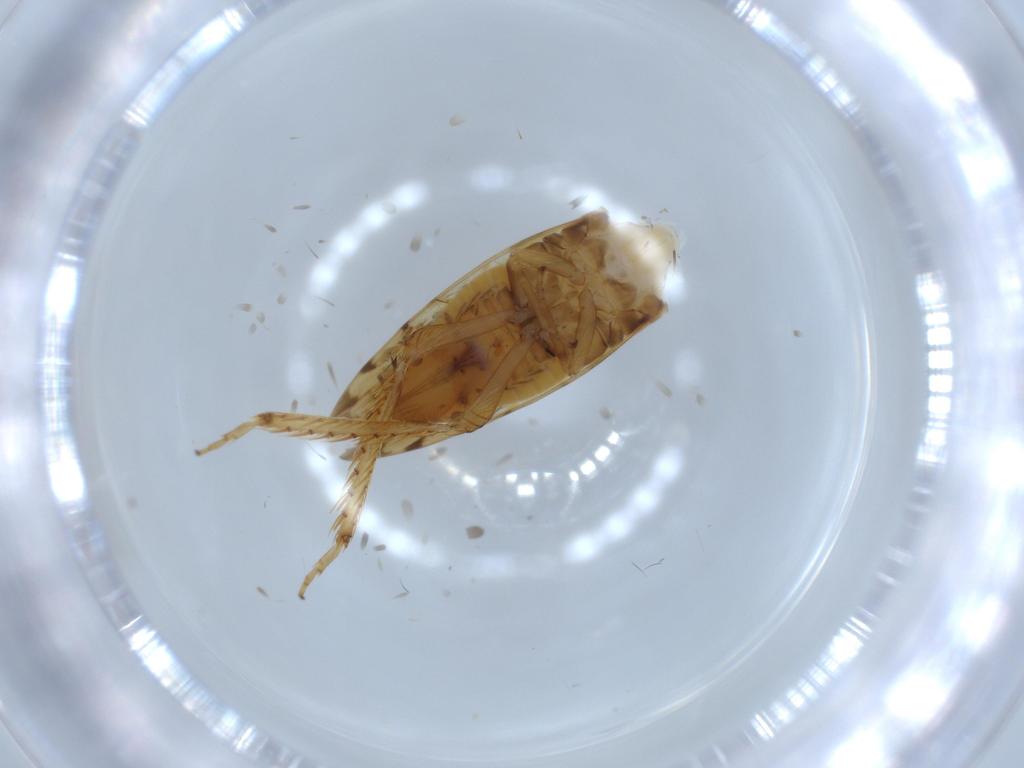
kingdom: Animalia
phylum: Arthropoda
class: Insecta
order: Hemiptera
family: Cicadellidae
